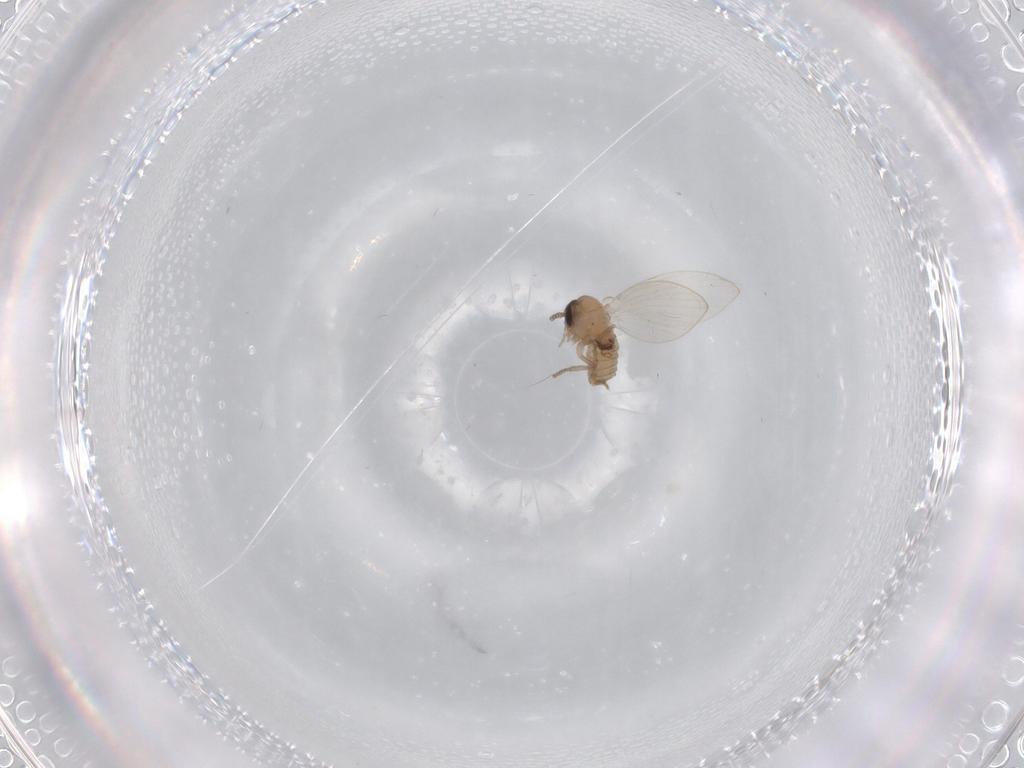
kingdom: Animalia
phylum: Arthropoda
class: Insecta
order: Diptera
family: Psychodidae
